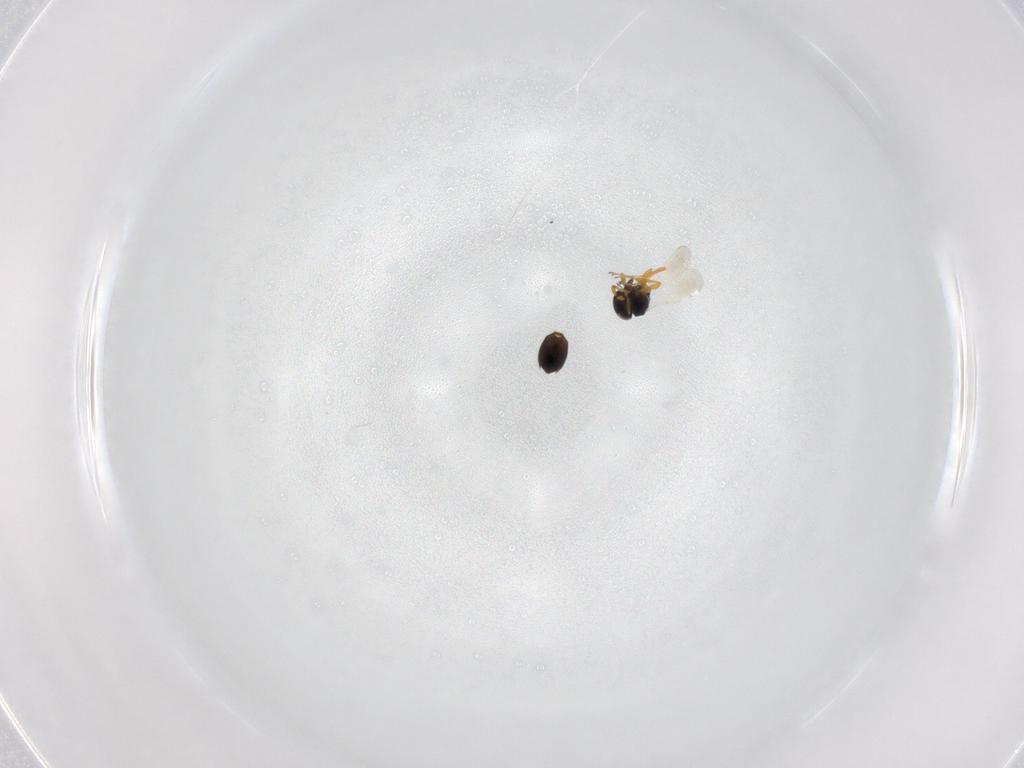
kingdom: Animalia
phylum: Arthropoda
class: Insecta
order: Hymenoptera
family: Platygastridae
